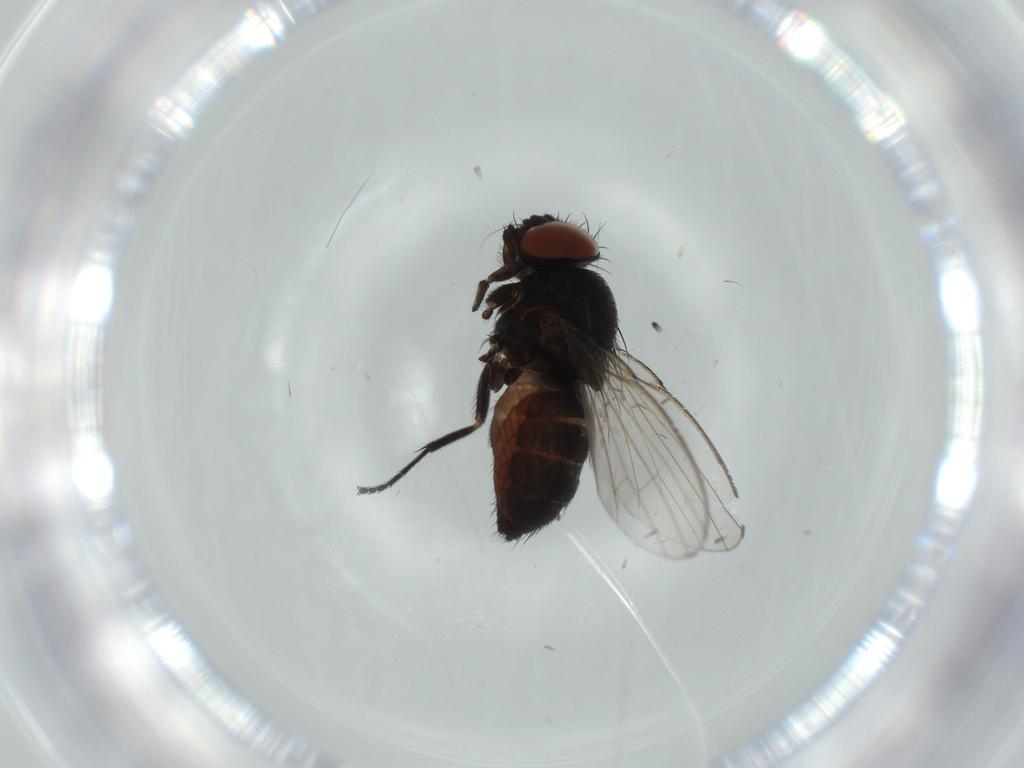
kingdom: Animalia
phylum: Arthropoda
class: Insecta
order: Diptera
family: Milichiidae
